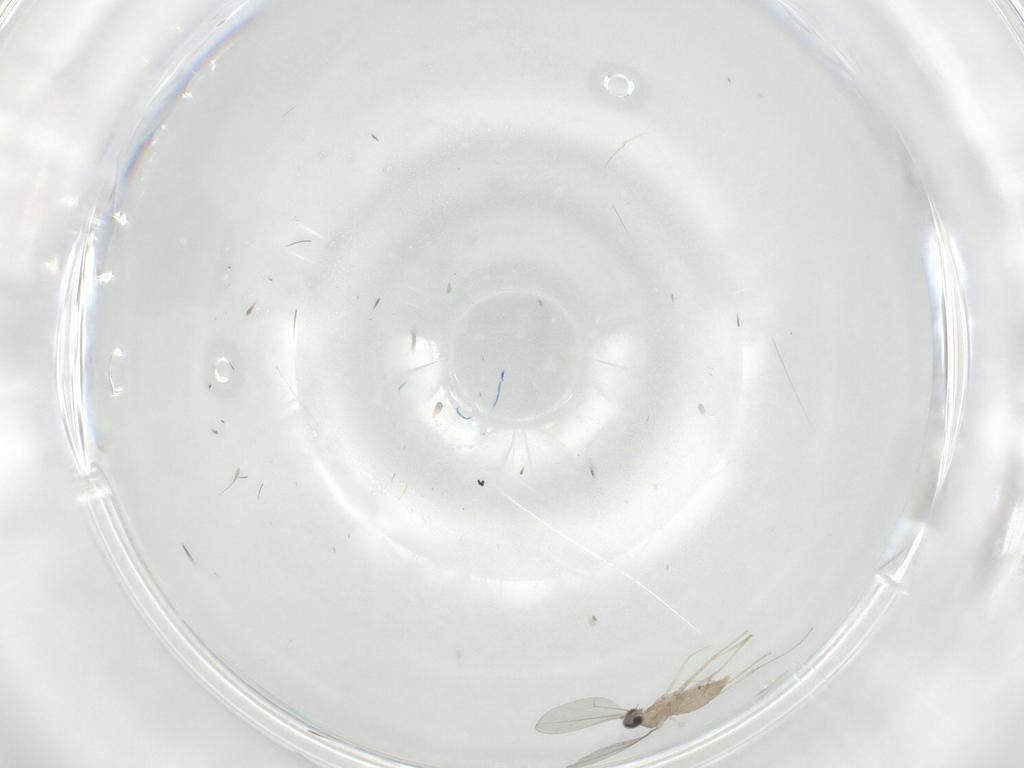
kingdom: Animalia
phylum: Arthropoda
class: Insecta
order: Diptera
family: Cecidomyiidae
